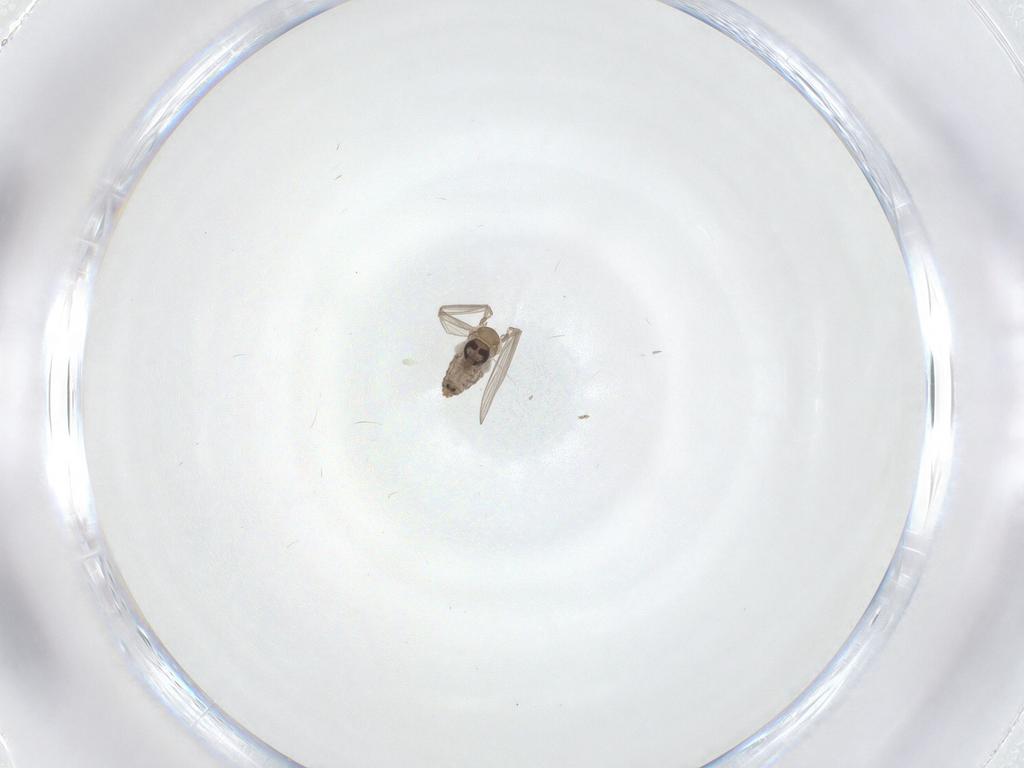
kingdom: Animalia
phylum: Arthropoda
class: Insecta
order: Diptera
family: Psychodidae
